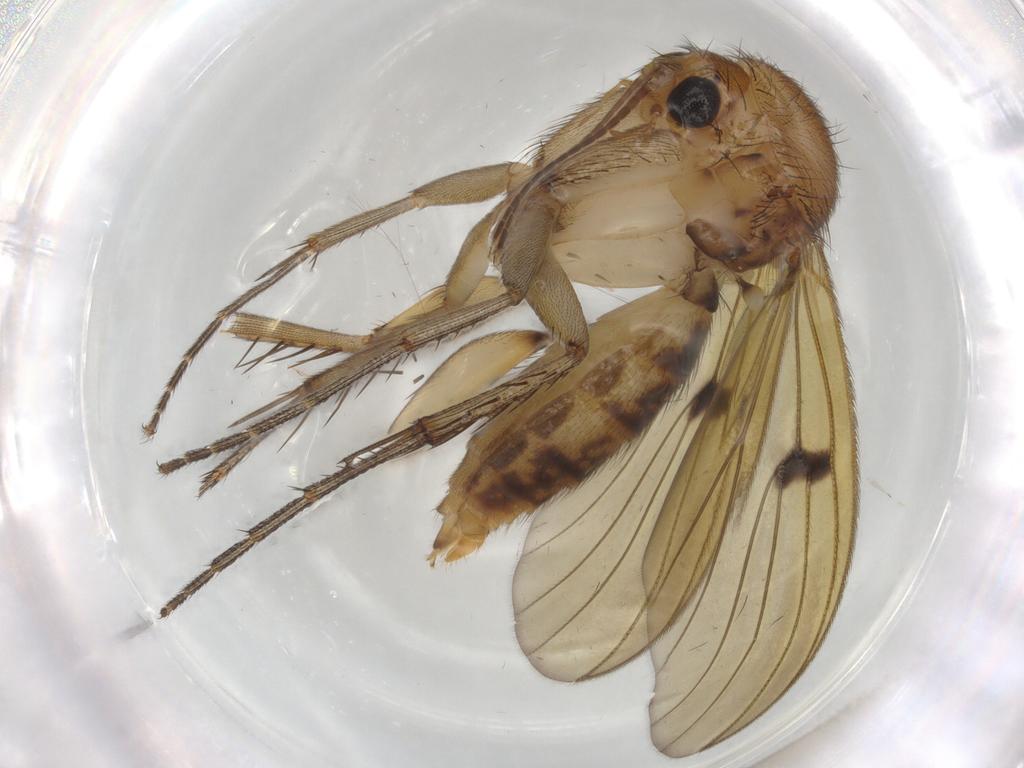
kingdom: Animalia
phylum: Arthropoda
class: Insecta
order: Diptera
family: Mycetophilidae
